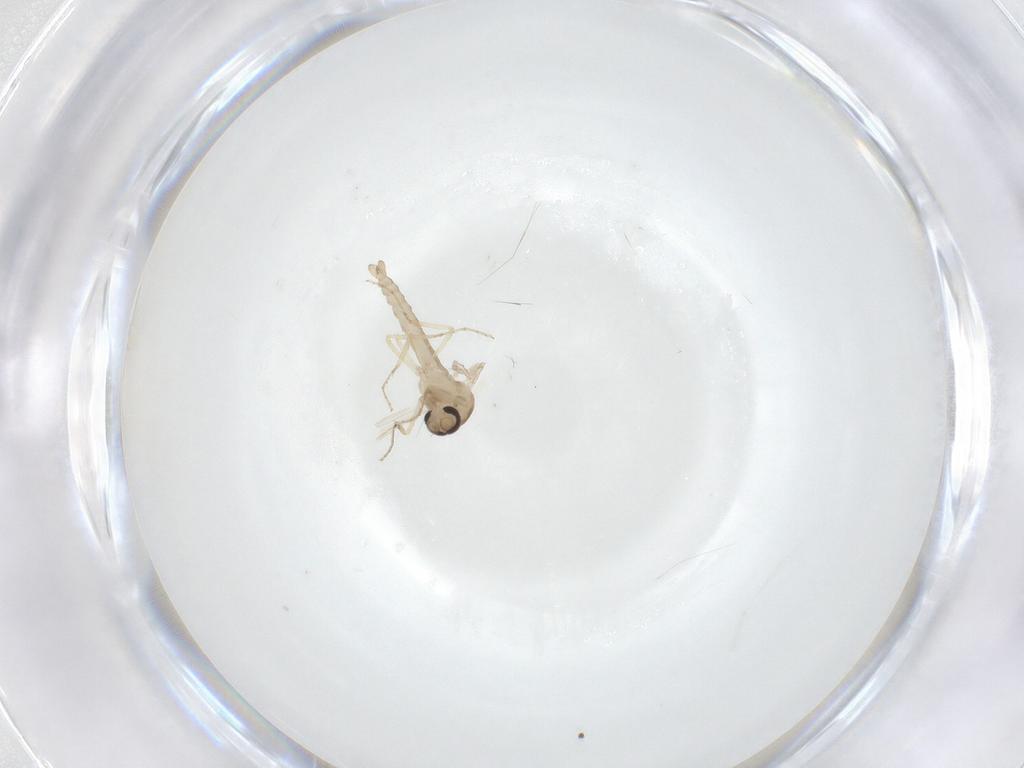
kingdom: Animalia
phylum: Arthropoda
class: Insecta
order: Diptera
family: Ceratopogonidae
